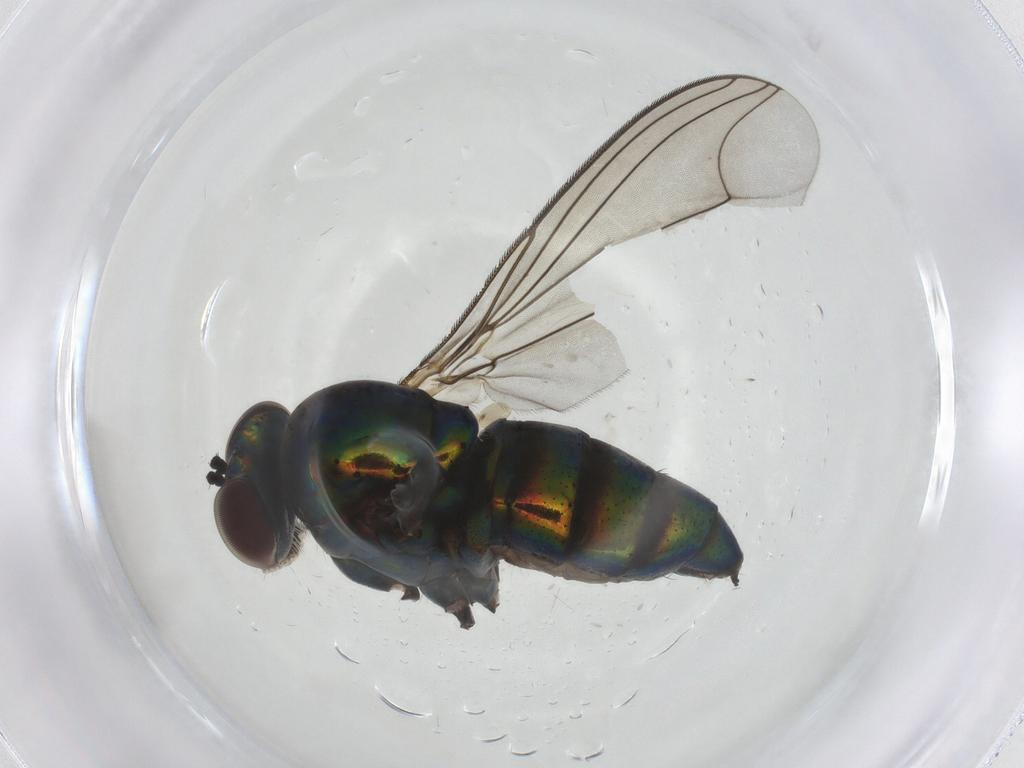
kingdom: Animalia
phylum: Arthropoda
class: Insecta
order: Diptera
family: Dolichopodidae
